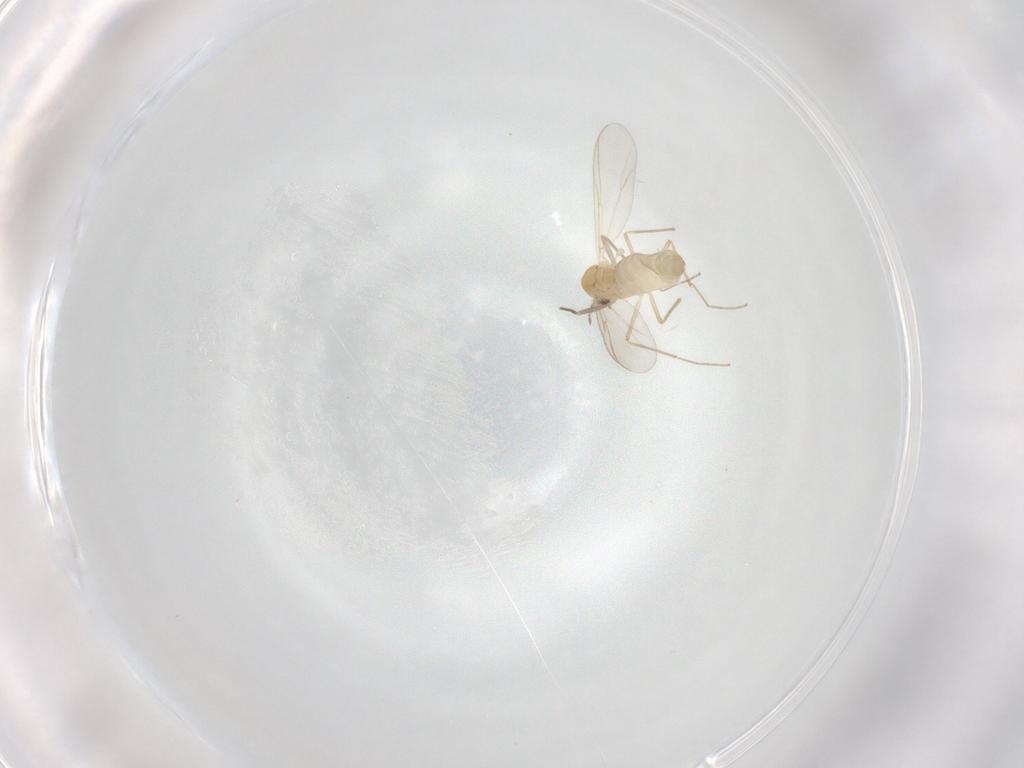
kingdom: Animalia
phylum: Arthropoda
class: Insecta
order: Diptera
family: Chironomidae
